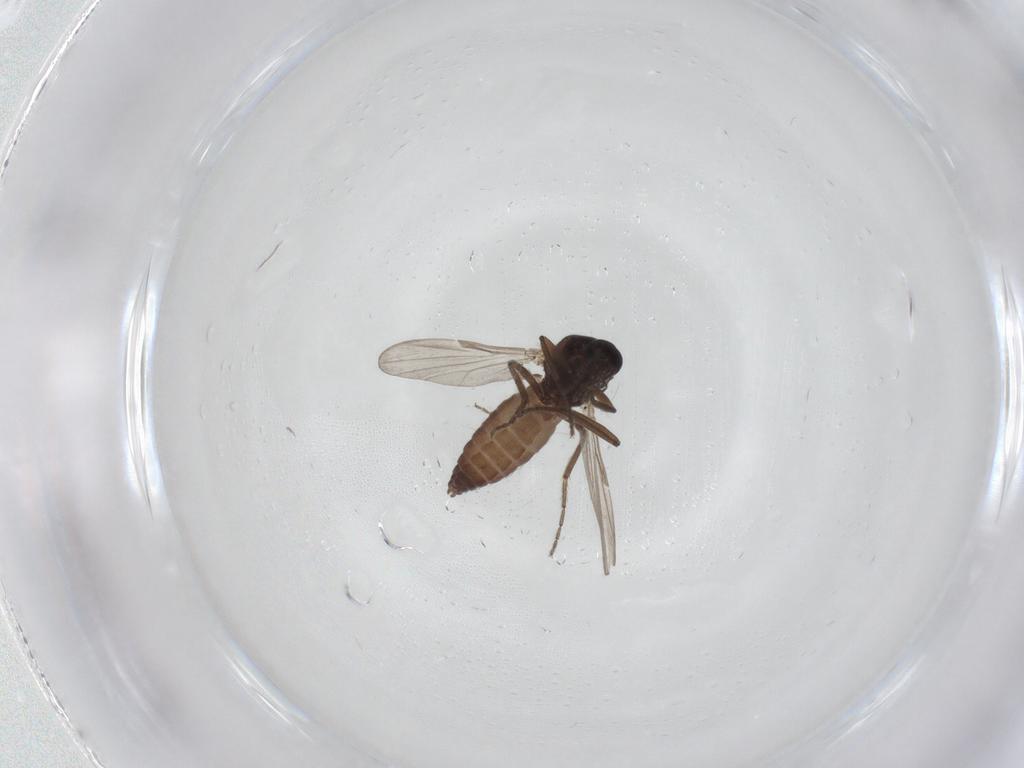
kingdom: Animalia
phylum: Arthropoda
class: Insecta
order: Diptera
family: Ceratopogonidae
